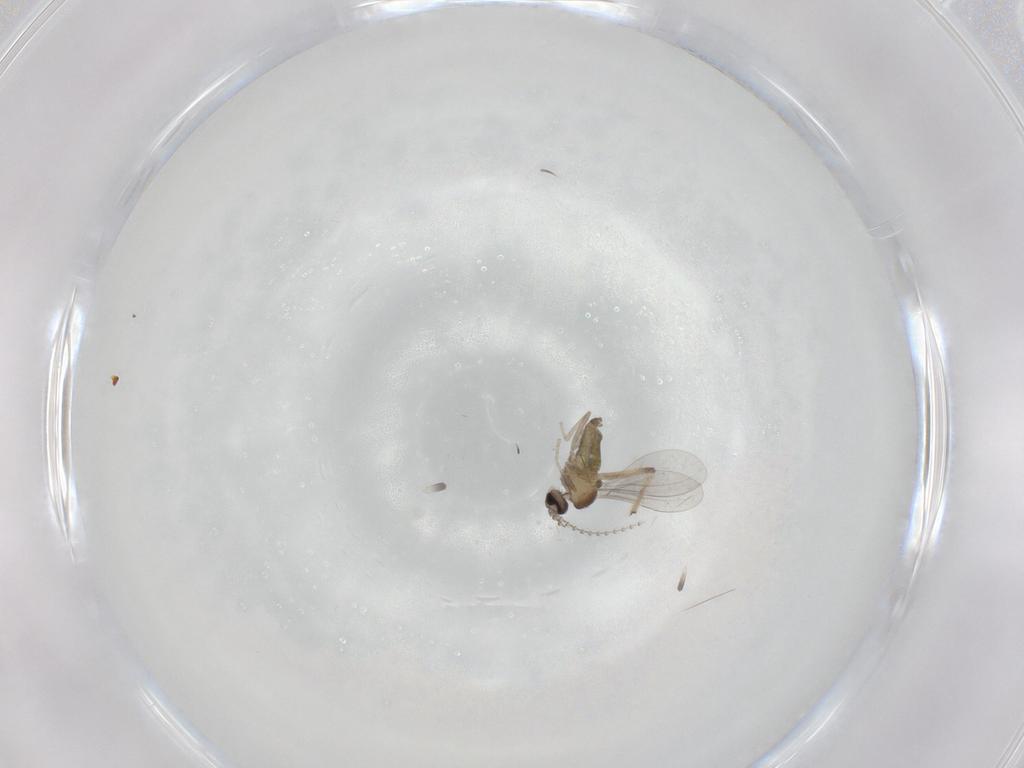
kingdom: Animalia
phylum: Arthropoda
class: Insecta
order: Diptera
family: Cecidomyiidae
